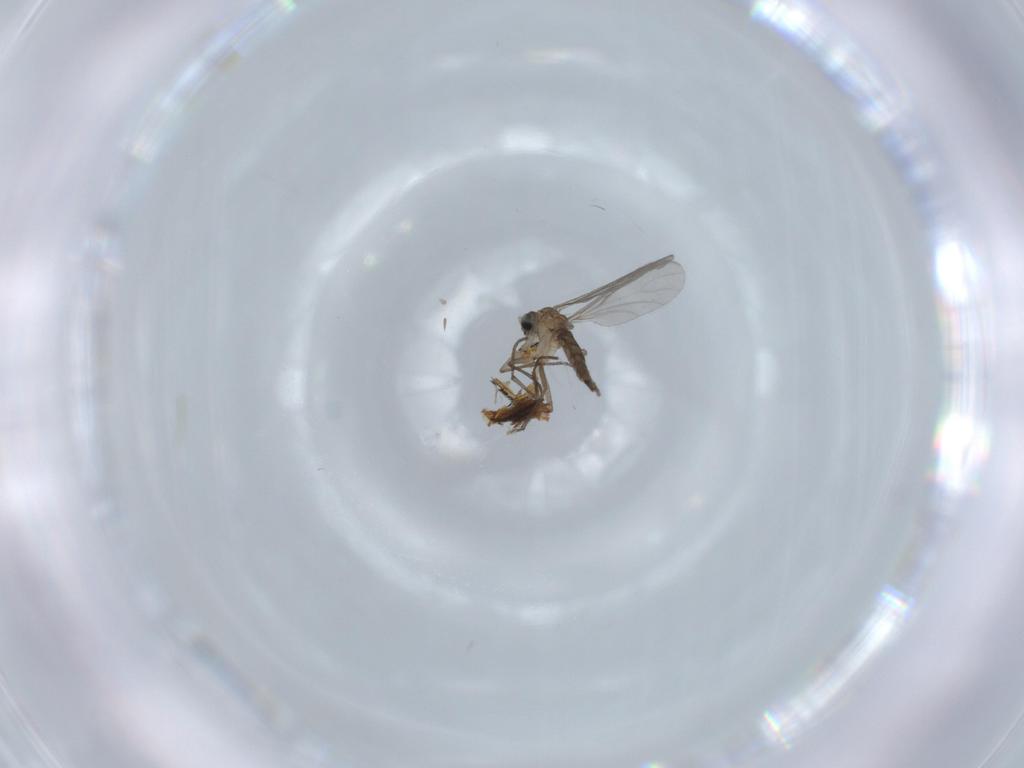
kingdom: Animalia
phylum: Arthropoda
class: Insecta
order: Diptera
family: Sciaridae
